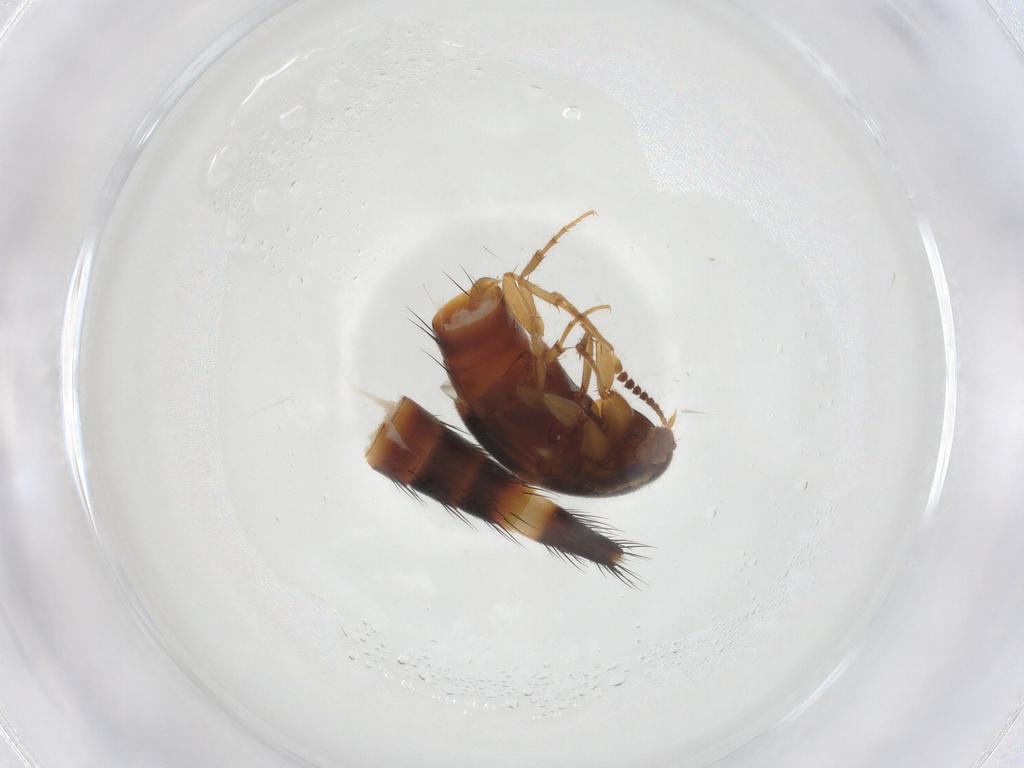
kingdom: Animalia
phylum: Arthropoda
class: Insecta
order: Coleoptera
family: Staphylinidae
